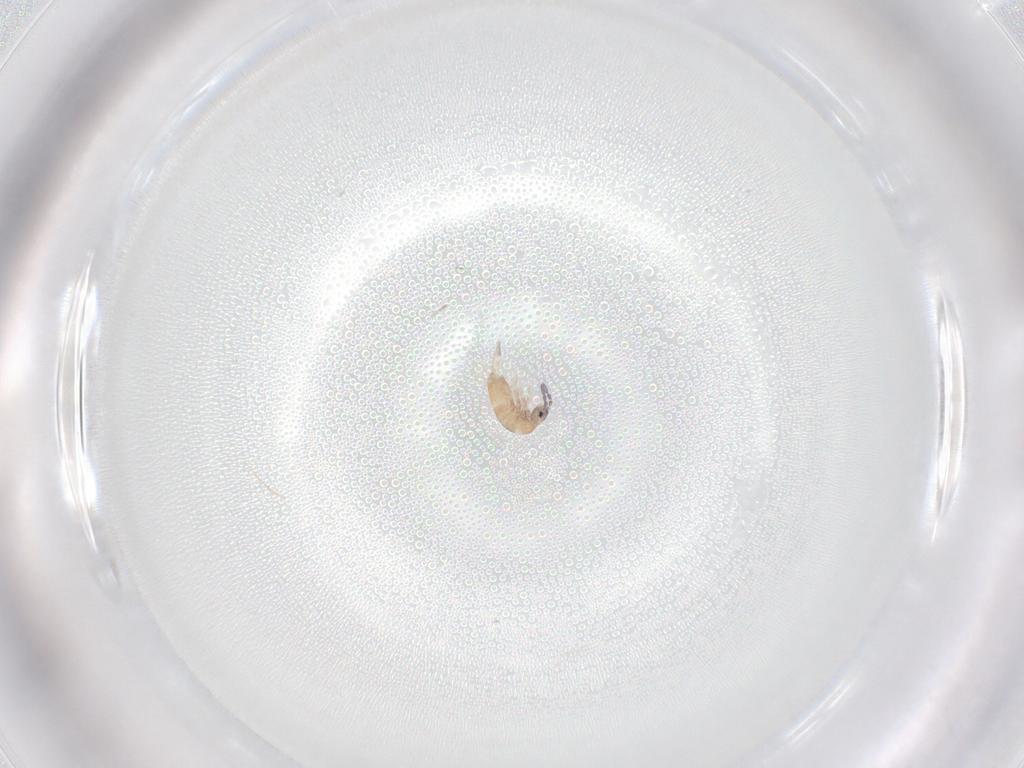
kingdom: Animalia
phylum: Arthropoda
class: Collembola
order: Entomobryomorpha
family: Entomobryidae
